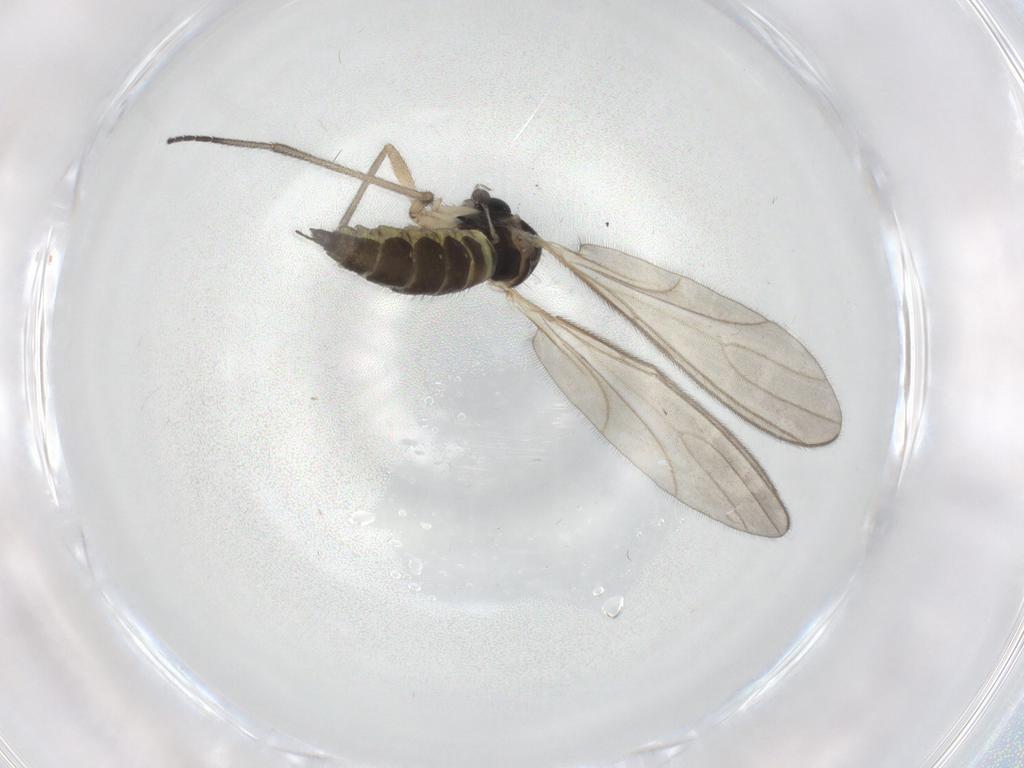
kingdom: Animalia
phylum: Arthropoda
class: Insecta
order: Diptera
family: Sciaridae
